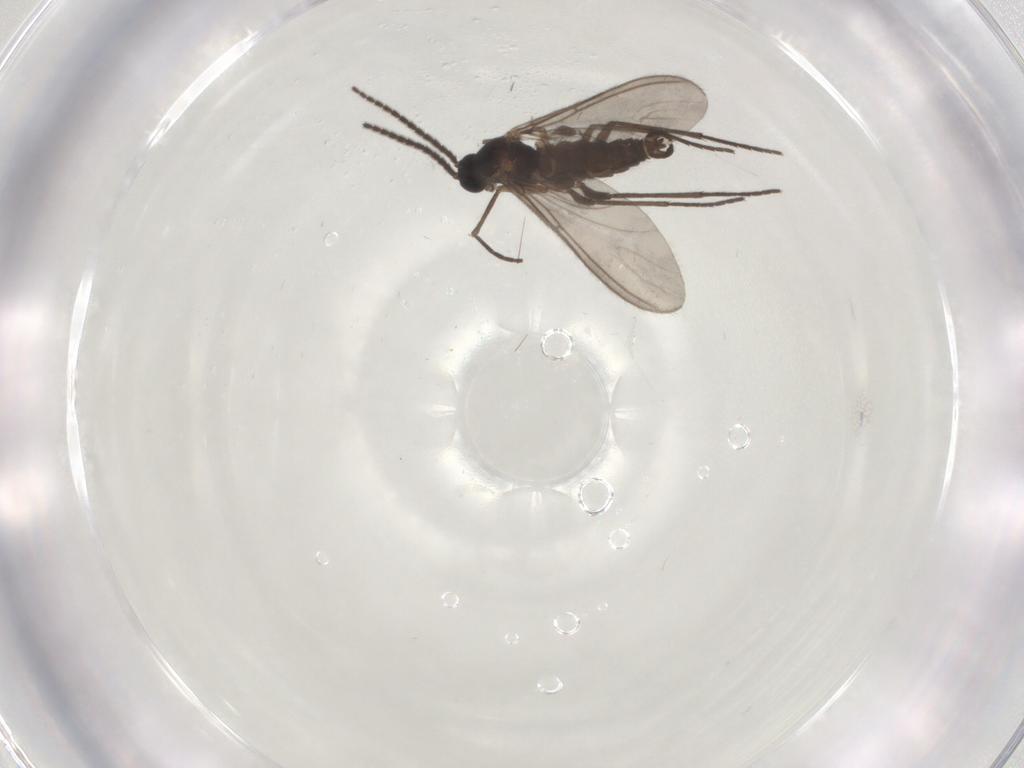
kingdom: Animalia
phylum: Arthropoda
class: Insecta
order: Diptera
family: Sciaridae
